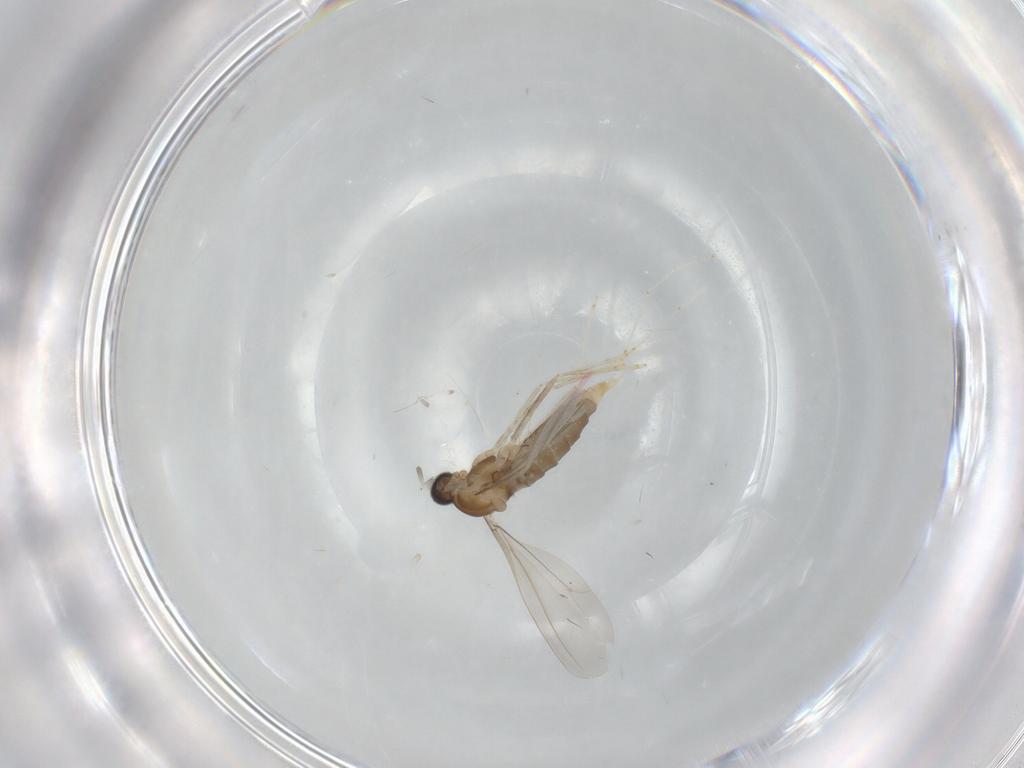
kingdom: Animalia
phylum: Arthropoda
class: Insecta
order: Diptera
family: Cecidomyiidae
